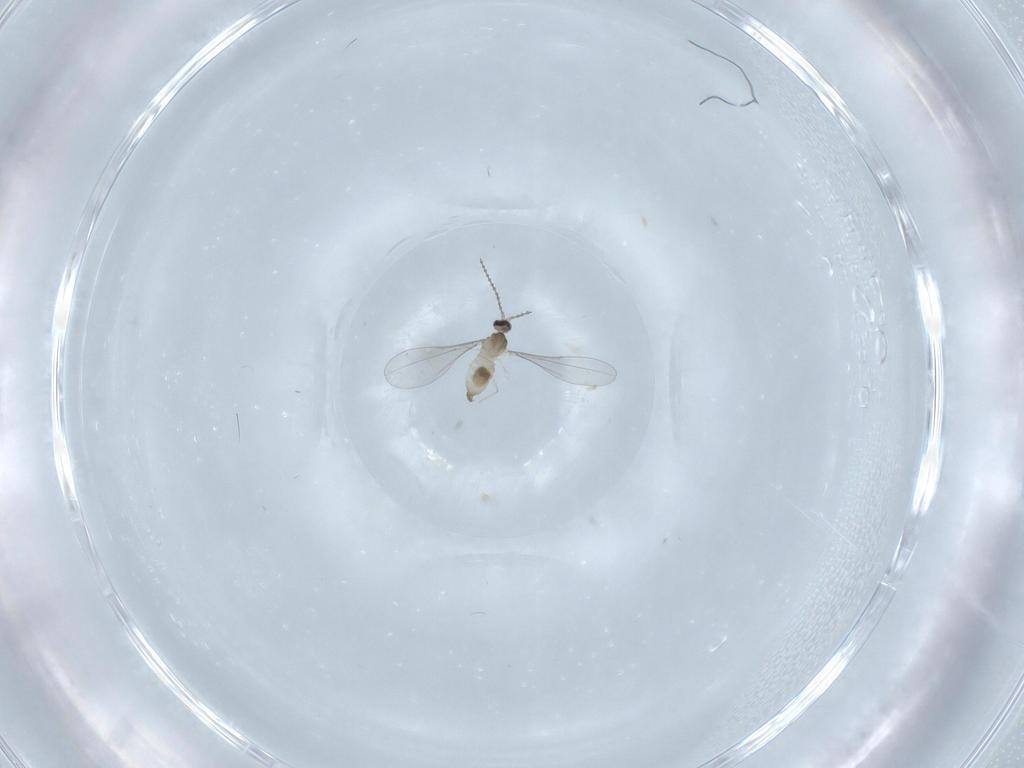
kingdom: Animalia
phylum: Arthropoda
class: Insecta
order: Diptera
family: Cecidomyiidae
